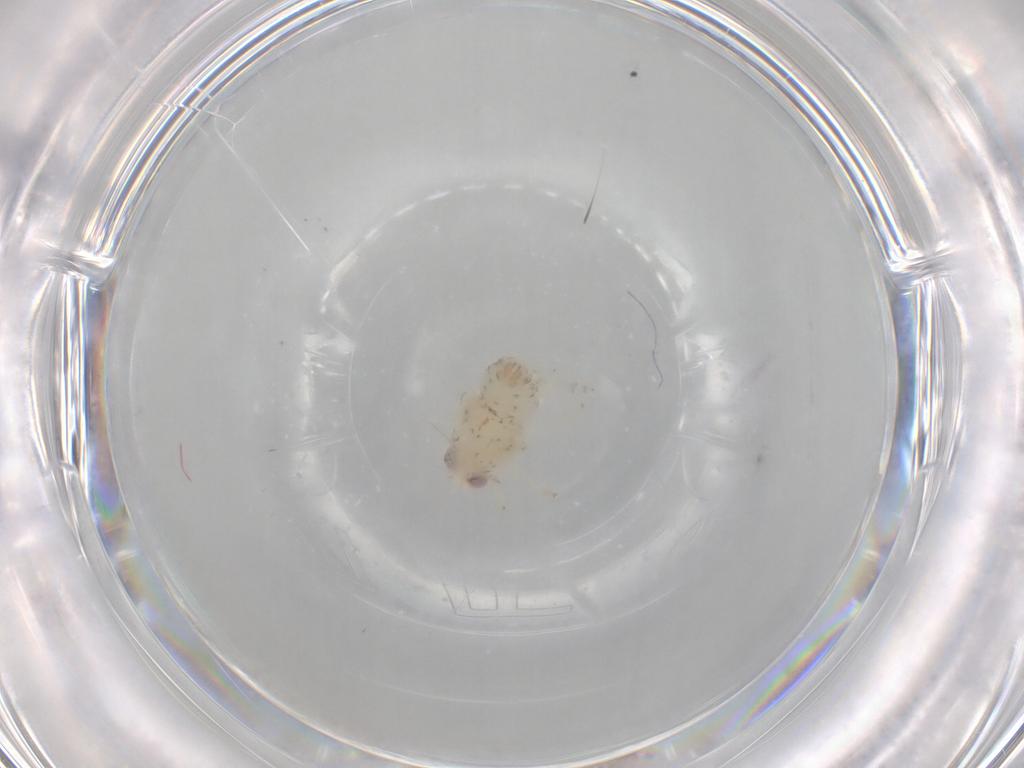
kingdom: Animalia
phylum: Arthropoda
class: Insecta
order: Hemiptera
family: Nogodinidae
